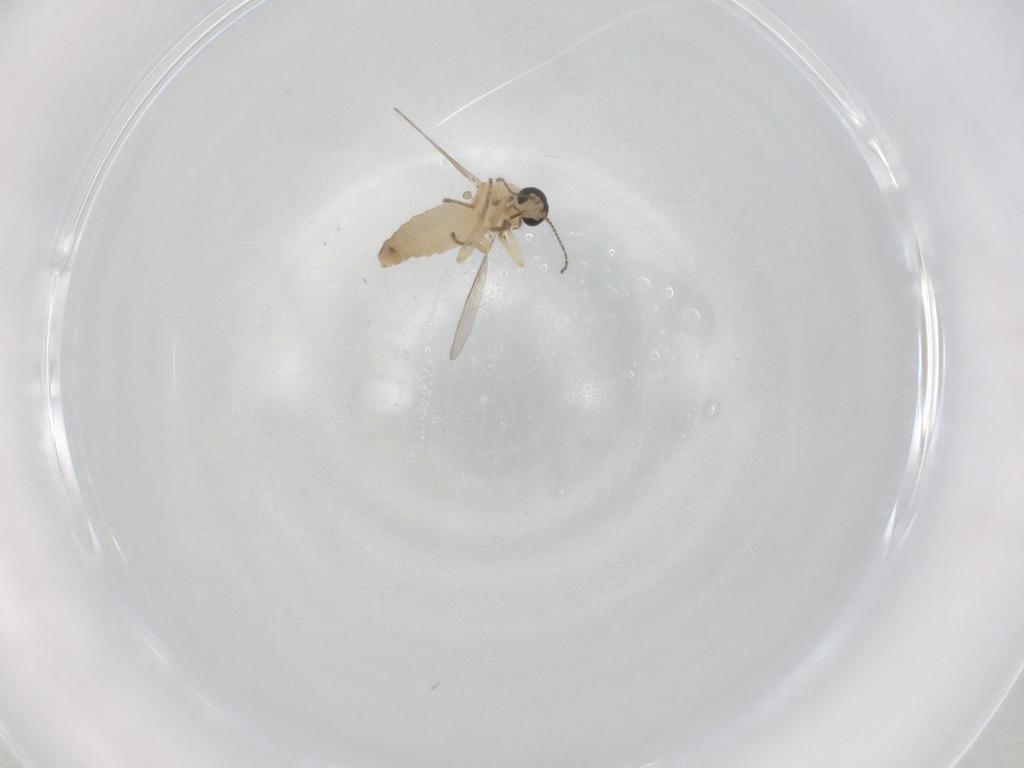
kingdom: Animalia
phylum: Arthropoda
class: Insecta
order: Diptera
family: Ceratopogonidae
